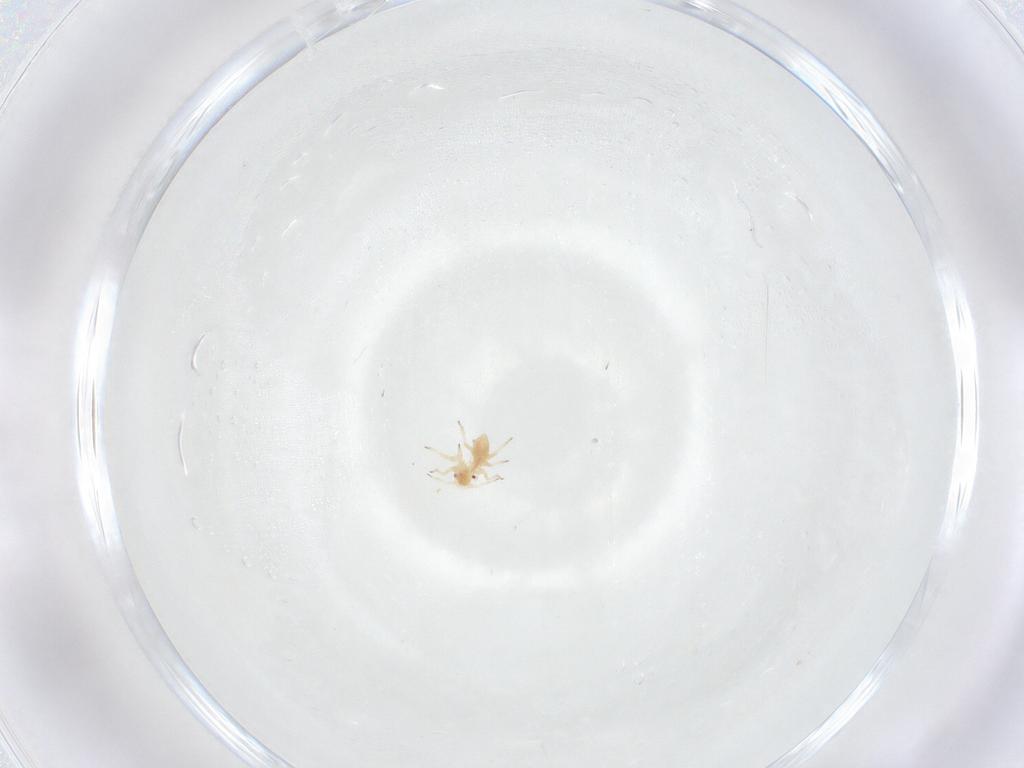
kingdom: Animalia
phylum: Arthropoda
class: Insecta
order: Hemiptera
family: Aphididae
